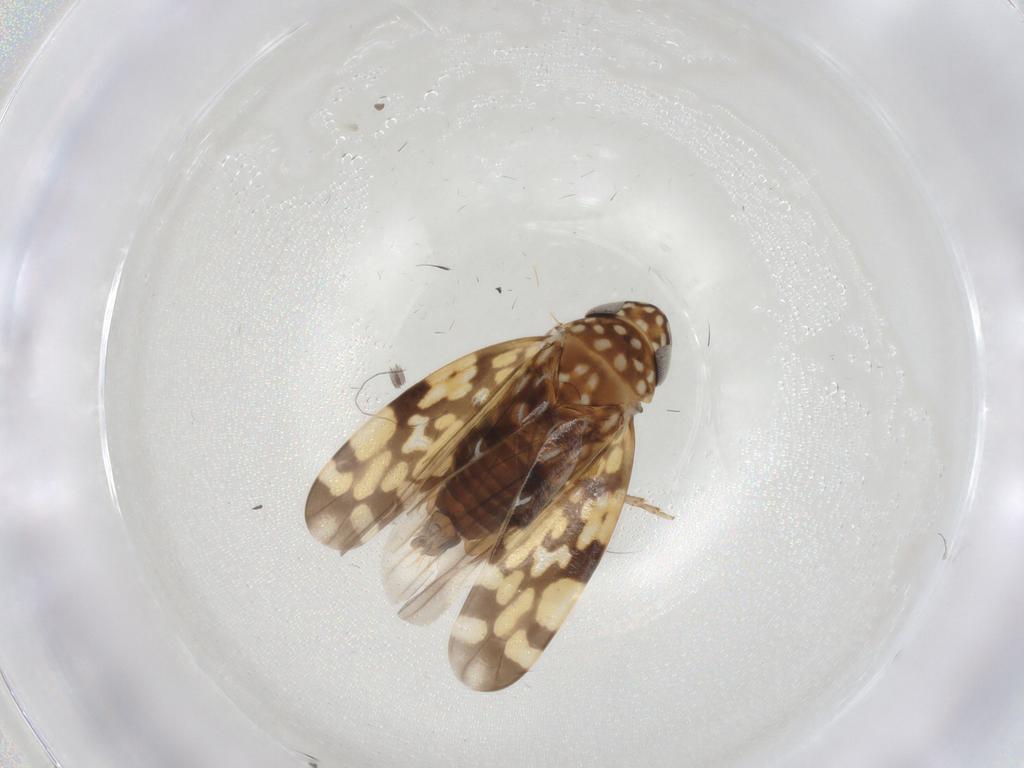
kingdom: Animalia
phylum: Arthropoda
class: Insecta
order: Hemiptera
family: Cicadellidae
